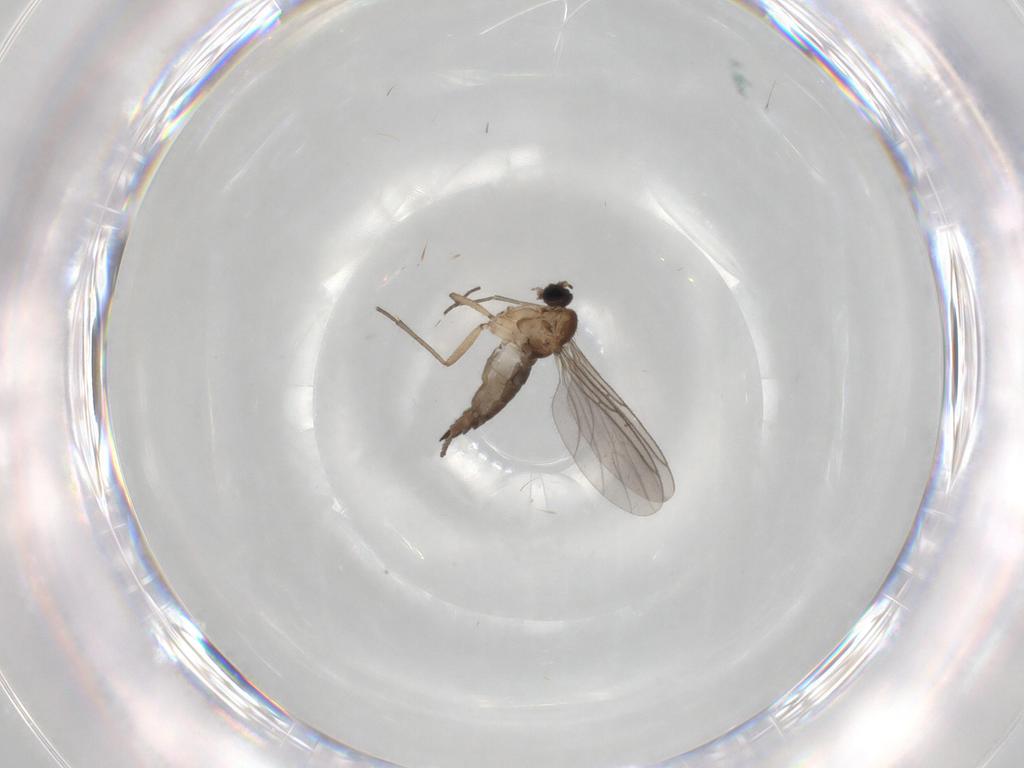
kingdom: Animalia
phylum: Arthropoda
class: Insecta
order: Diptera
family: Sciaridae
